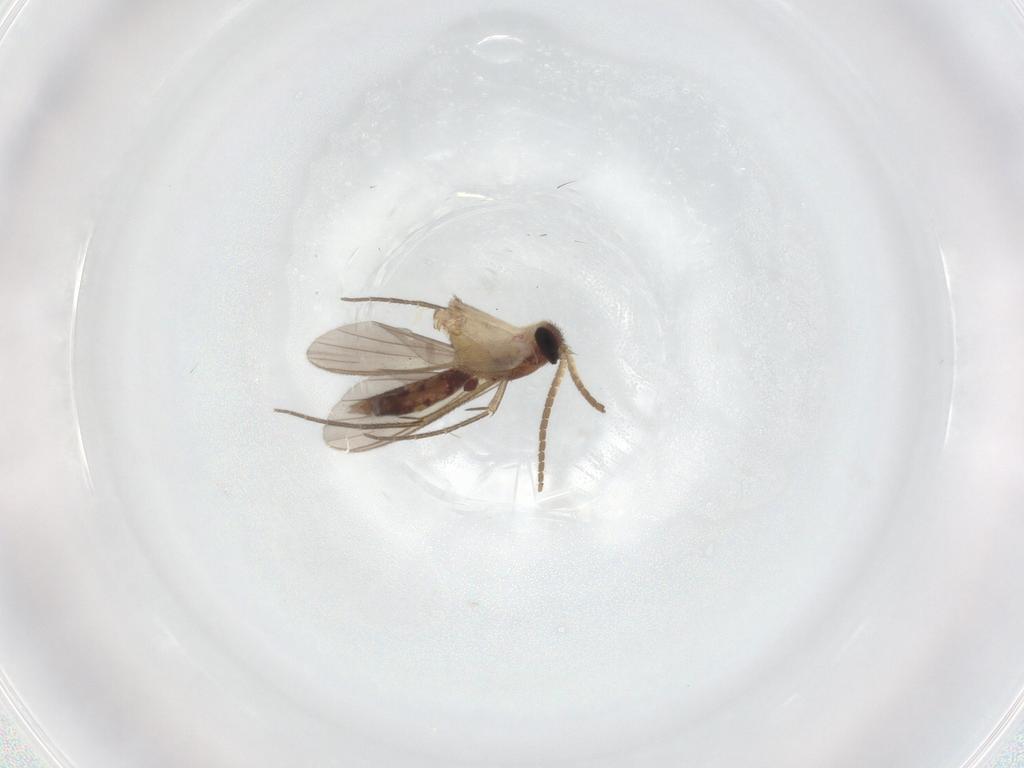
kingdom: Animalia
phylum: Arthropoda
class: Insecta
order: Diptera
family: Mycetophilidae
